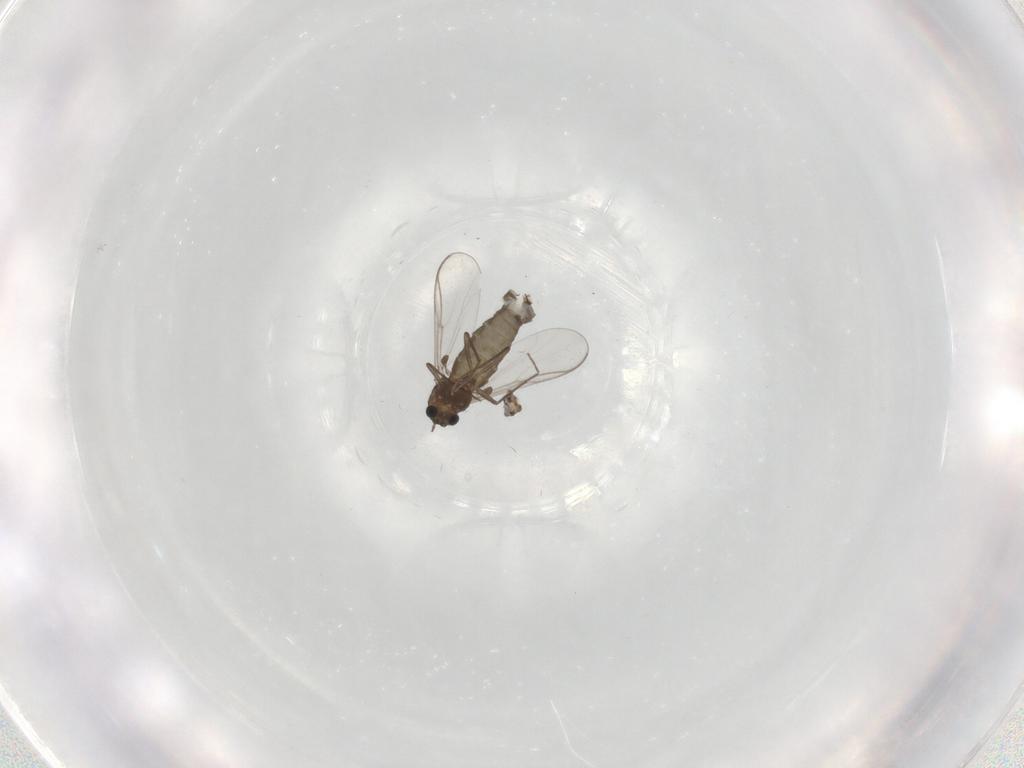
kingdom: Animalia
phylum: Arthropoda
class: Insecta
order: Diptera
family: Chironomidae
